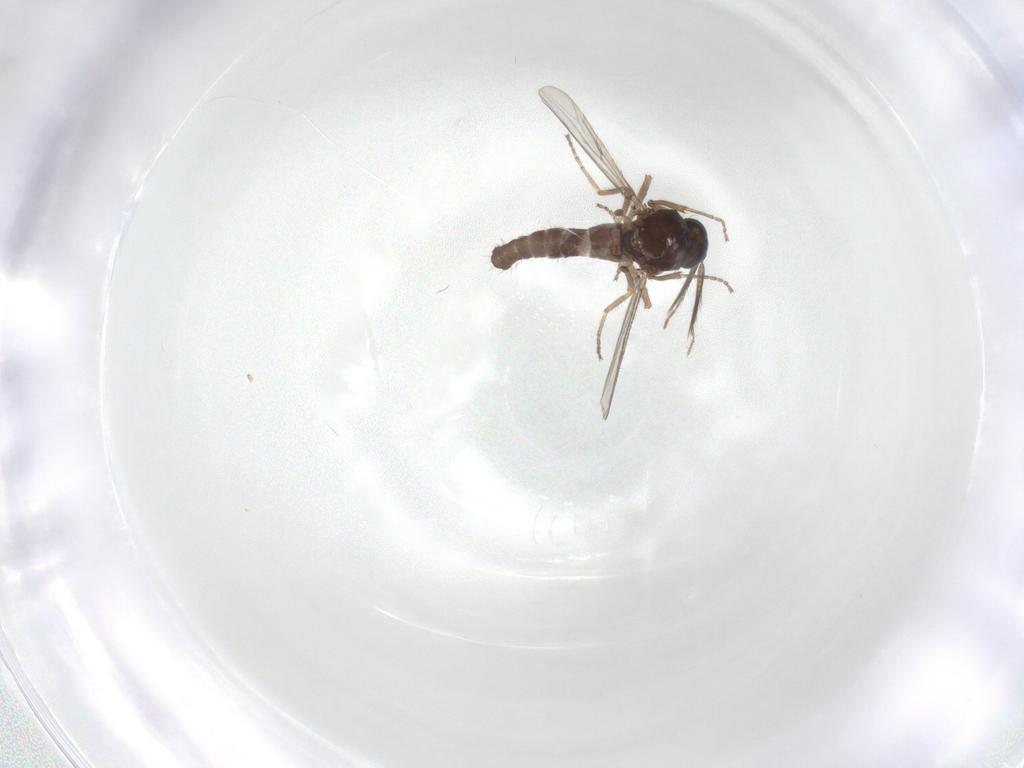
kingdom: Animalia
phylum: Arthropoda
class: Insecta
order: Diptera
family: Ceratopogonidae
